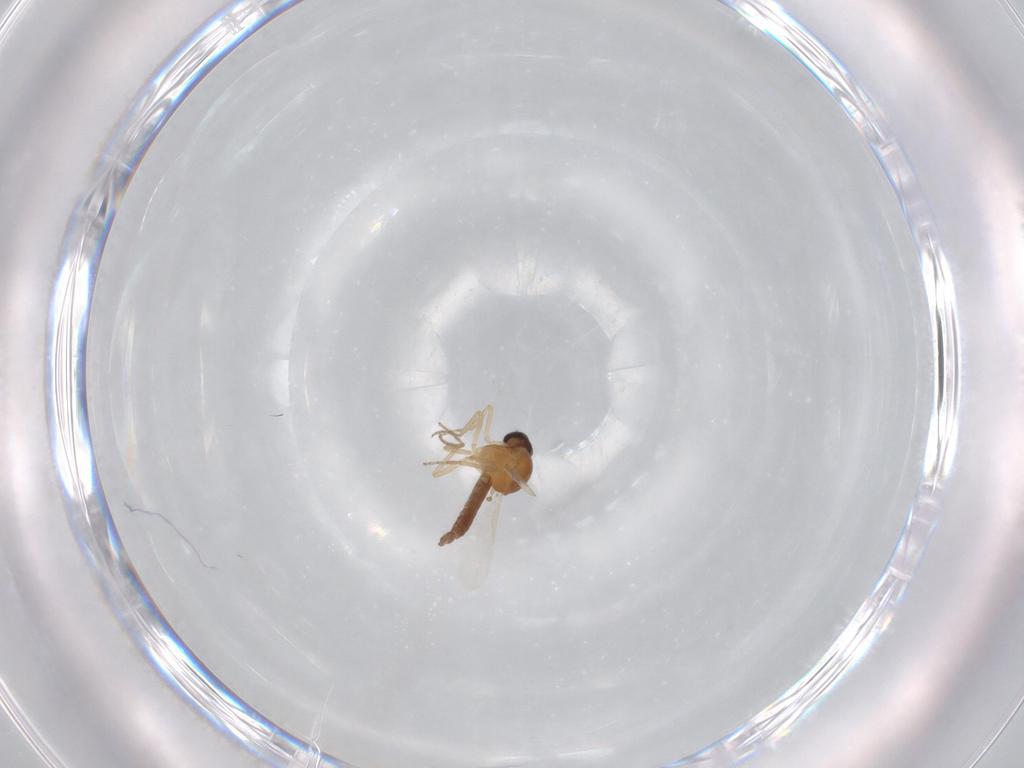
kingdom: Animalia
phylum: Arthropoda
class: Insecta
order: Diptera
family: Ceratopogonidae
